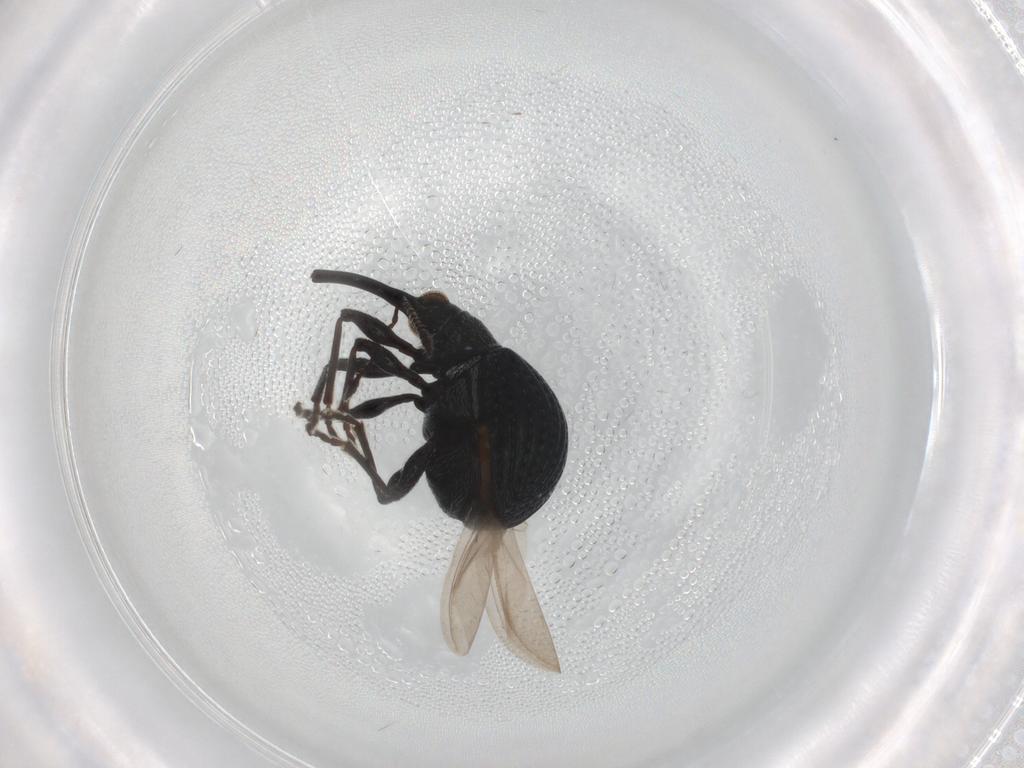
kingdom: Animalia
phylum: Arthropoda
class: Insecta
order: Coleoptera
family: Brentidae
